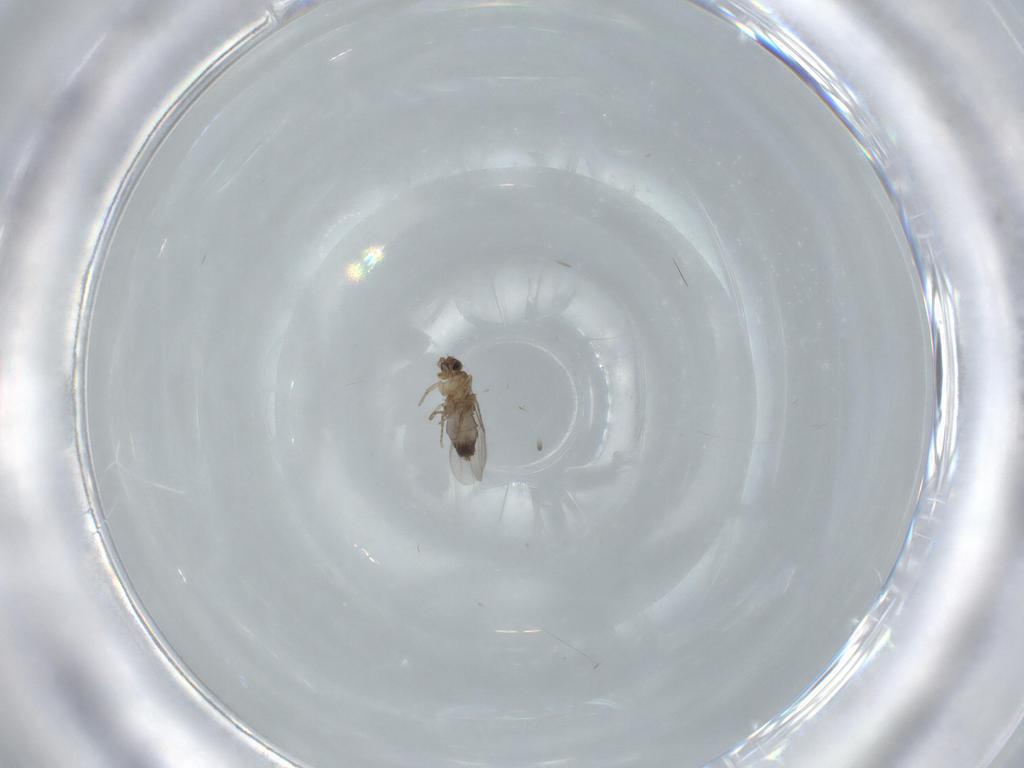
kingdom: Animalia
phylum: Arthropoda
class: Insecta
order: Diptera
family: Phoridae
